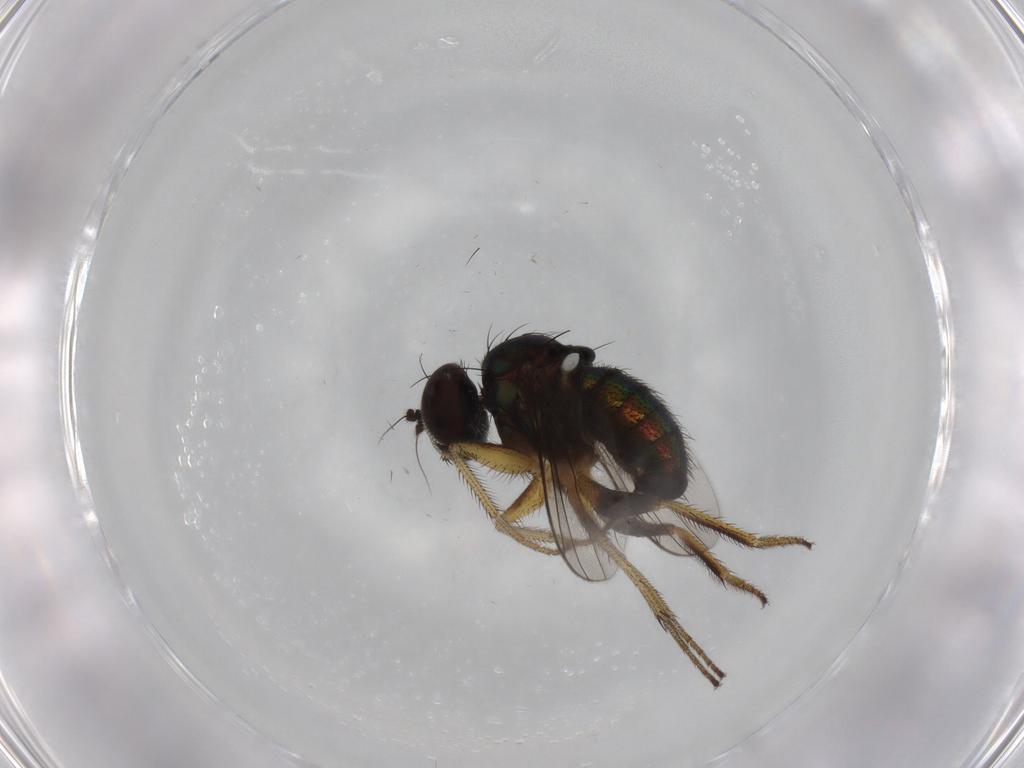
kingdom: Animalia
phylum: Arthropoda
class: Insecta
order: Diptera
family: Dolichopodidae
